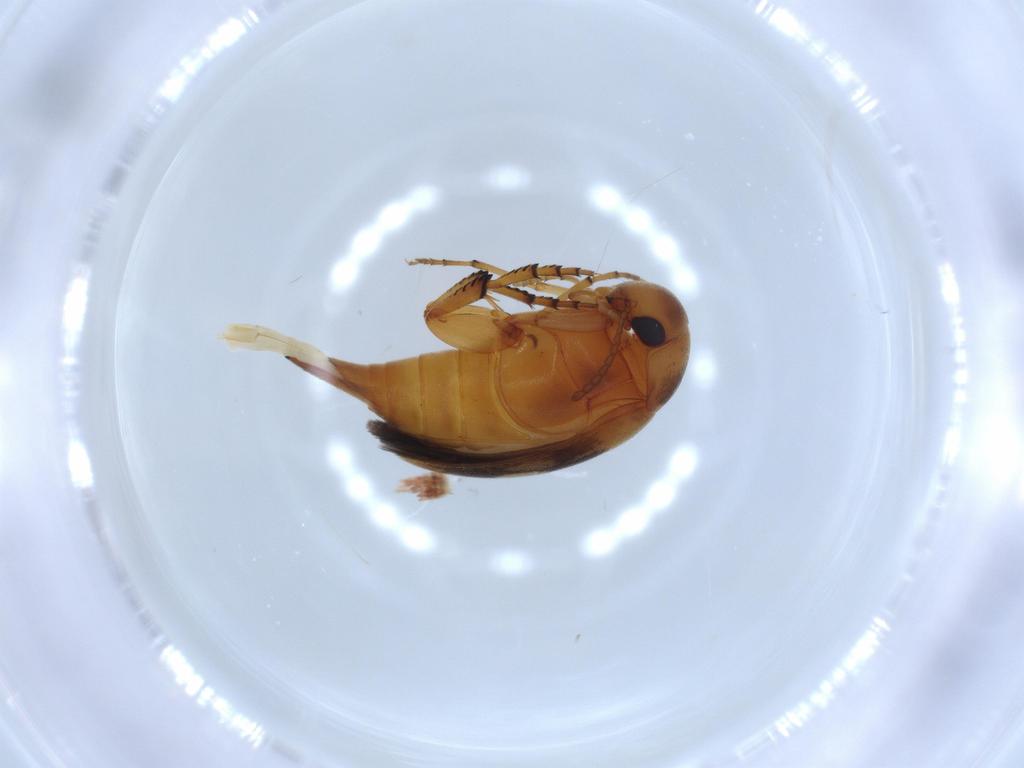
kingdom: Animalia
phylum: Arthropoda
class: Insecta
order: Coleoptera
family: Mordellidae
